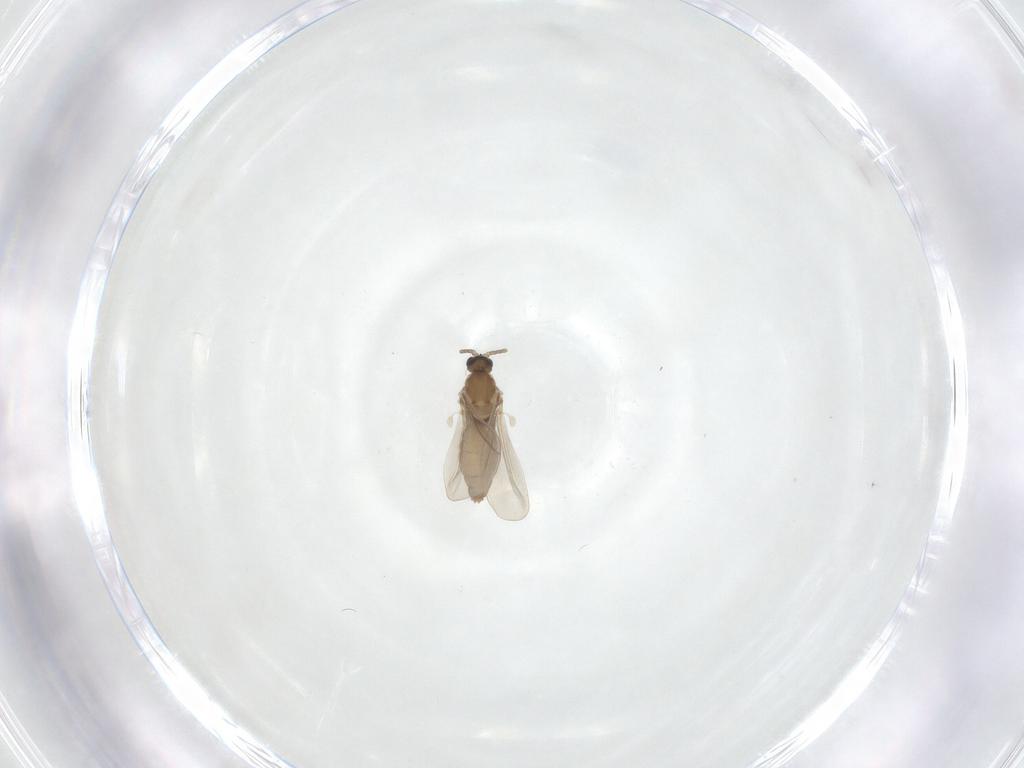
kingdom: Animalia
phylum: Arthropoda
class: Insecta
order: Diptera
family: Cecidomyiidae
